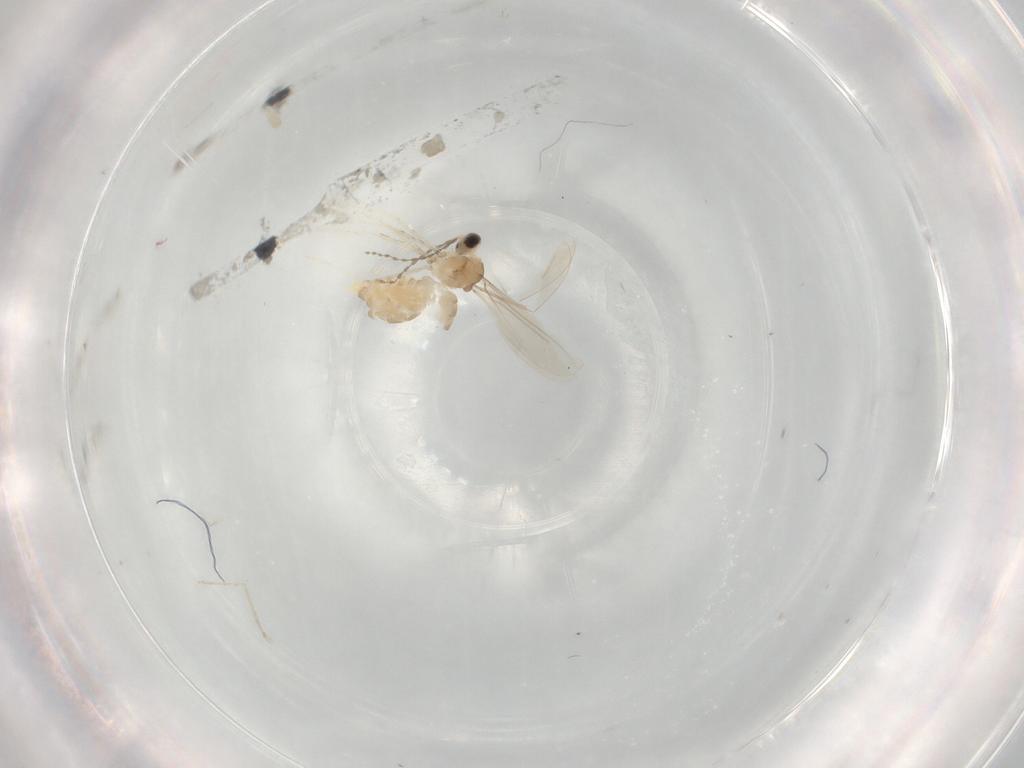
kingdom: Animalia
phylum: Arthropoda
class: Insecta
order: Diptera
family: Cecidomyiidae
